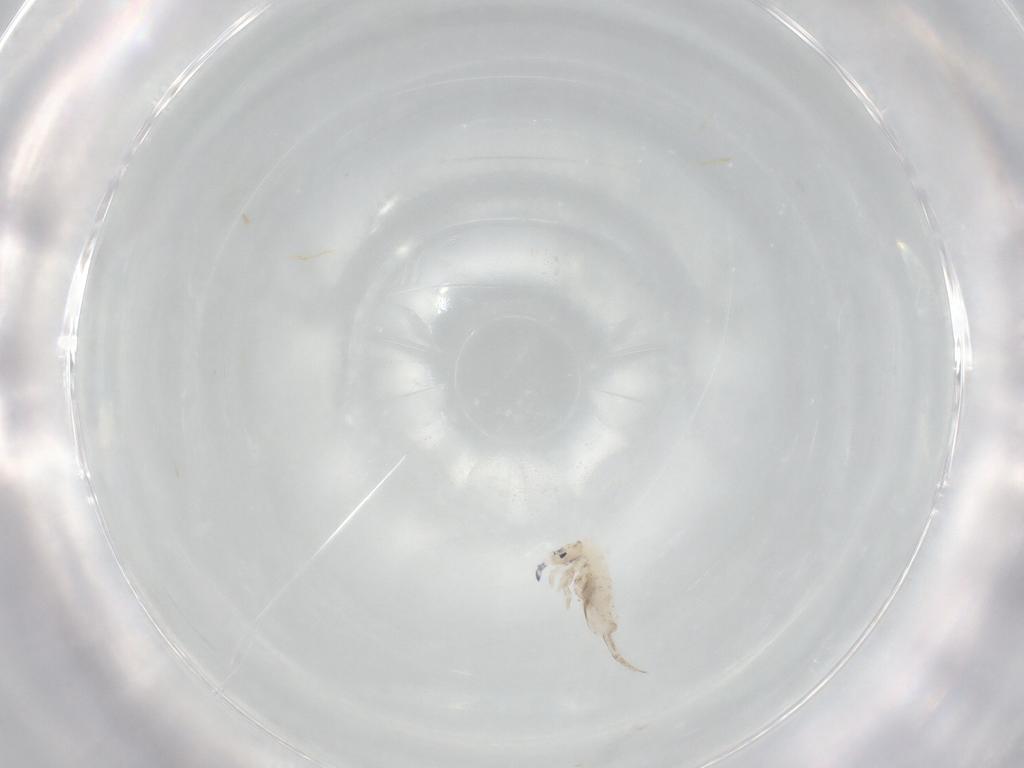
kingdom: Animalia
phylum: Arthropoda
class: Collembola
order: Entomobryomorpha
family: Entomobryidae
